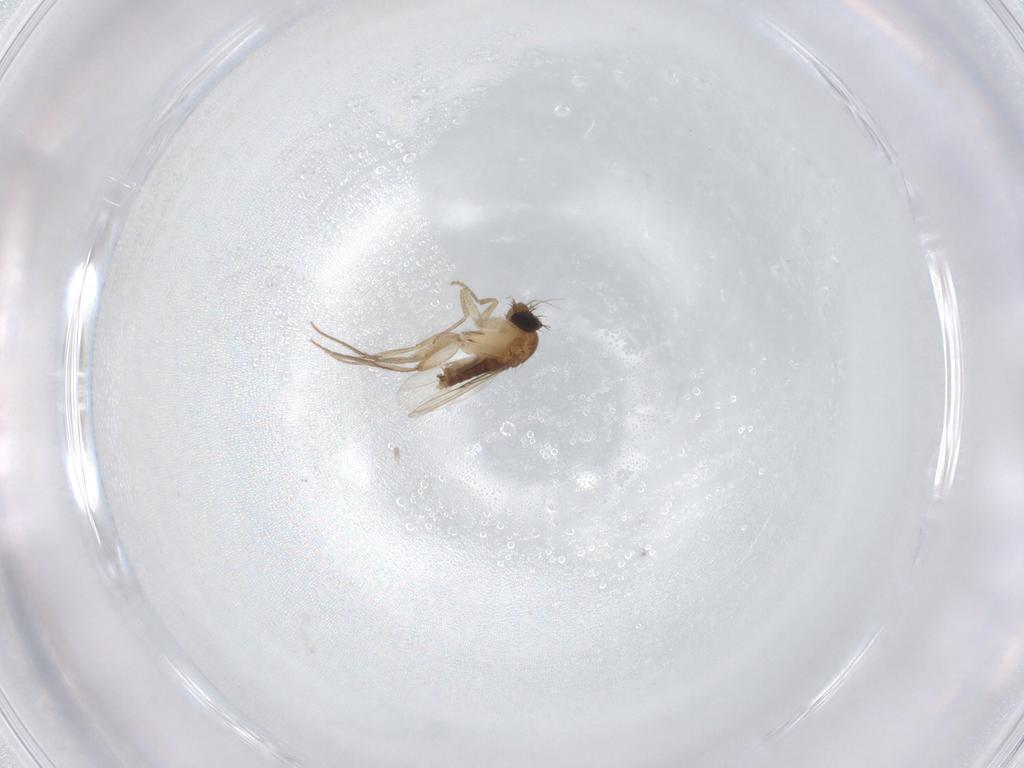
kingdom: Animalia
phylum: Arthropoda
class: Insecta
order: Diptera
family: Phoridae
